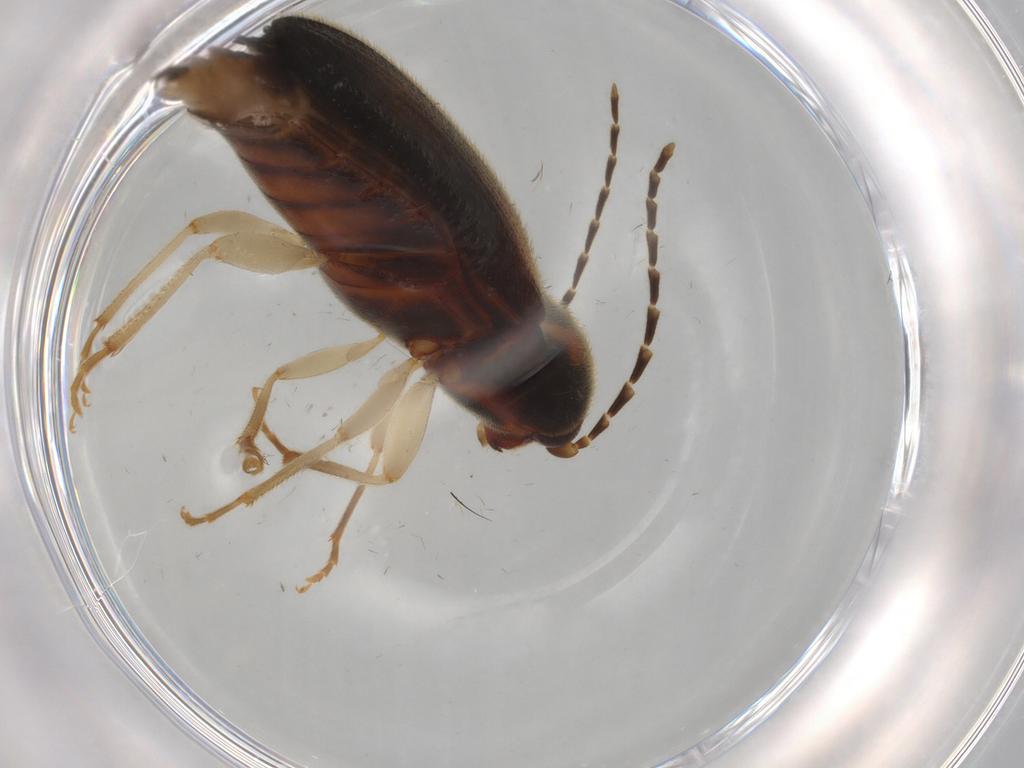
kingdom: Animalia
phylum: Arthropoda
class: Insecta
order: Coleoptera
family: Elateridae
